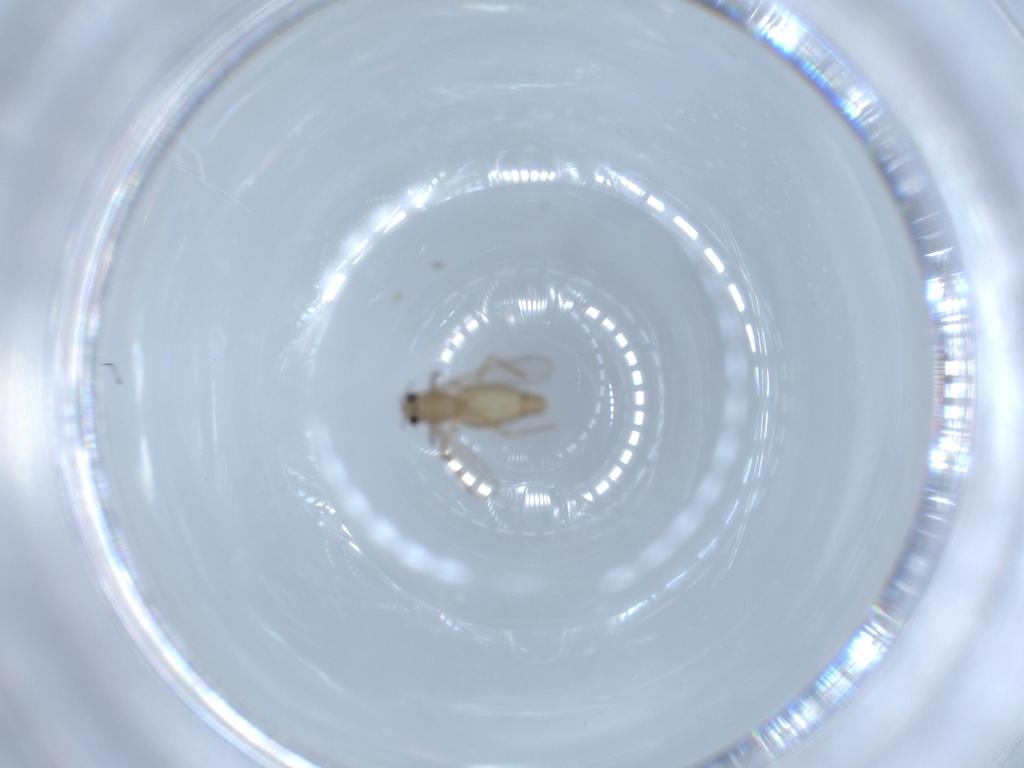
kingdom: Animalia
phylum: Arthropoda
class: Insecta
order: Diptera
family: Chironomidae
